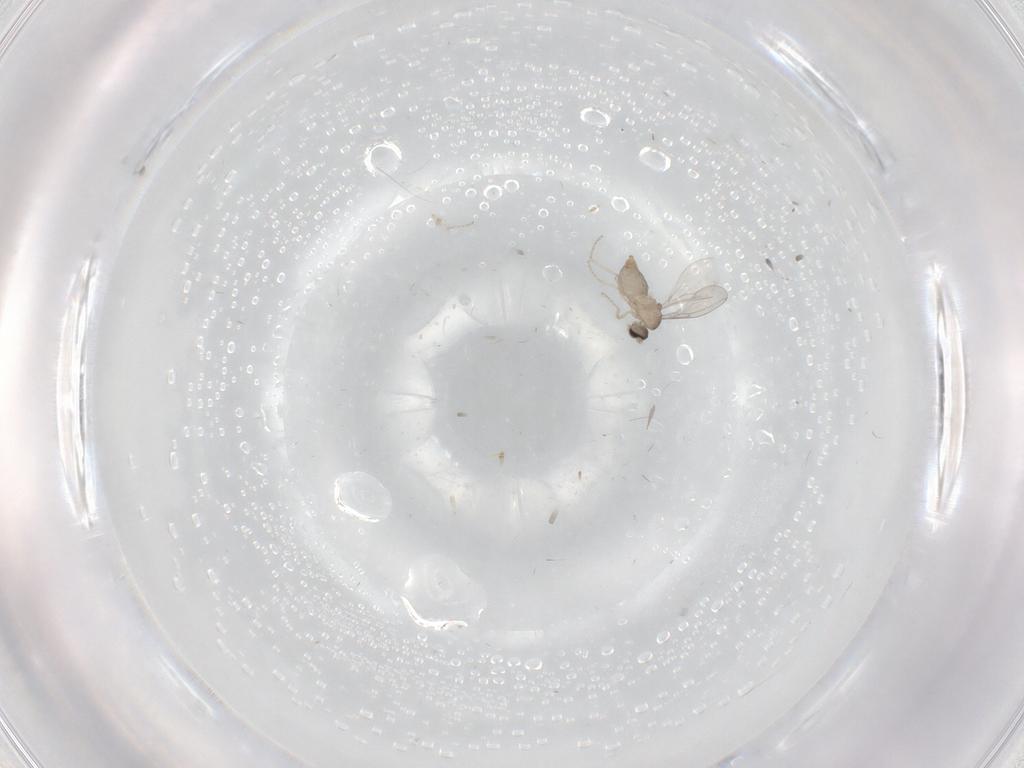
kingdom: Animalia
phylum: Arthropoda
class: Insecta
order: Diptera
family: Cecidomyiidae
